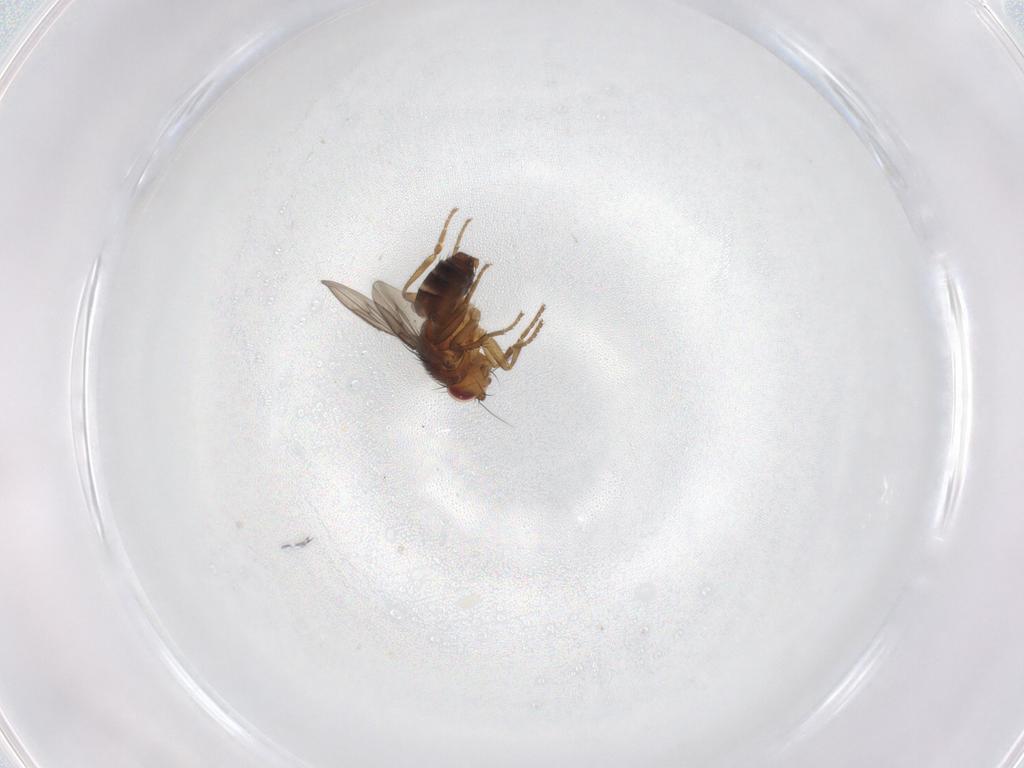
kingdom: Animalia
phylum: Arthropoda
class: Insecta
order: Diptera
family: Sphaeroceridae
